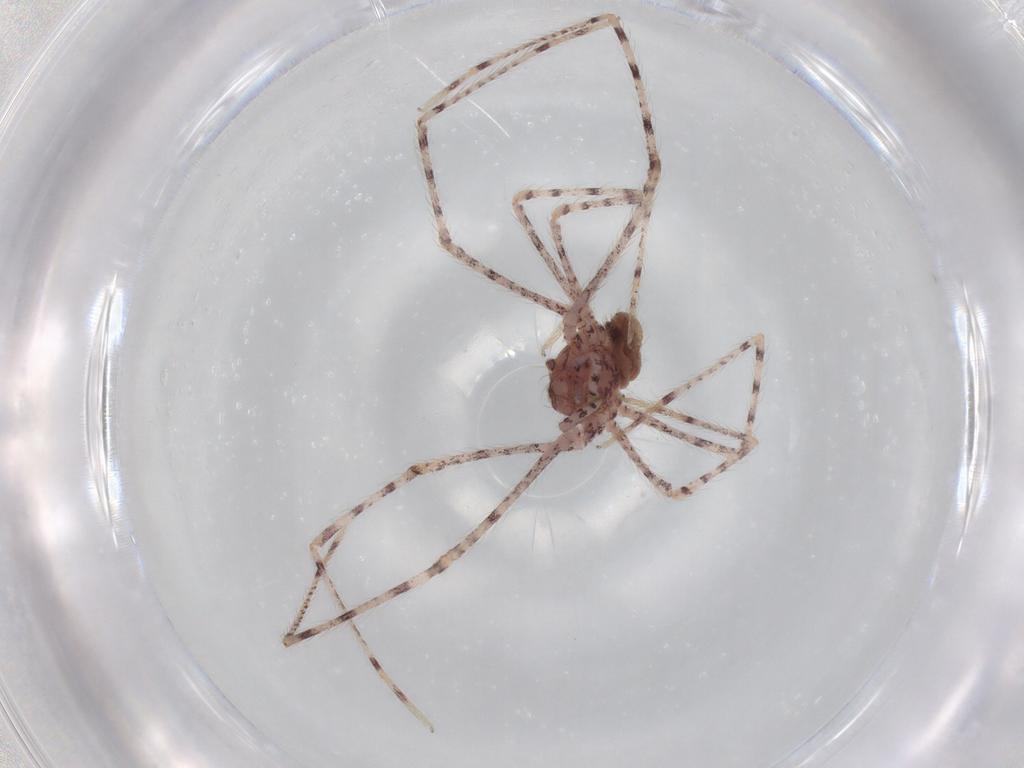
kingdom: Animalia
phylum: Arthropoda
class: Arachnida
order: Araneae
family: Scytodidae
